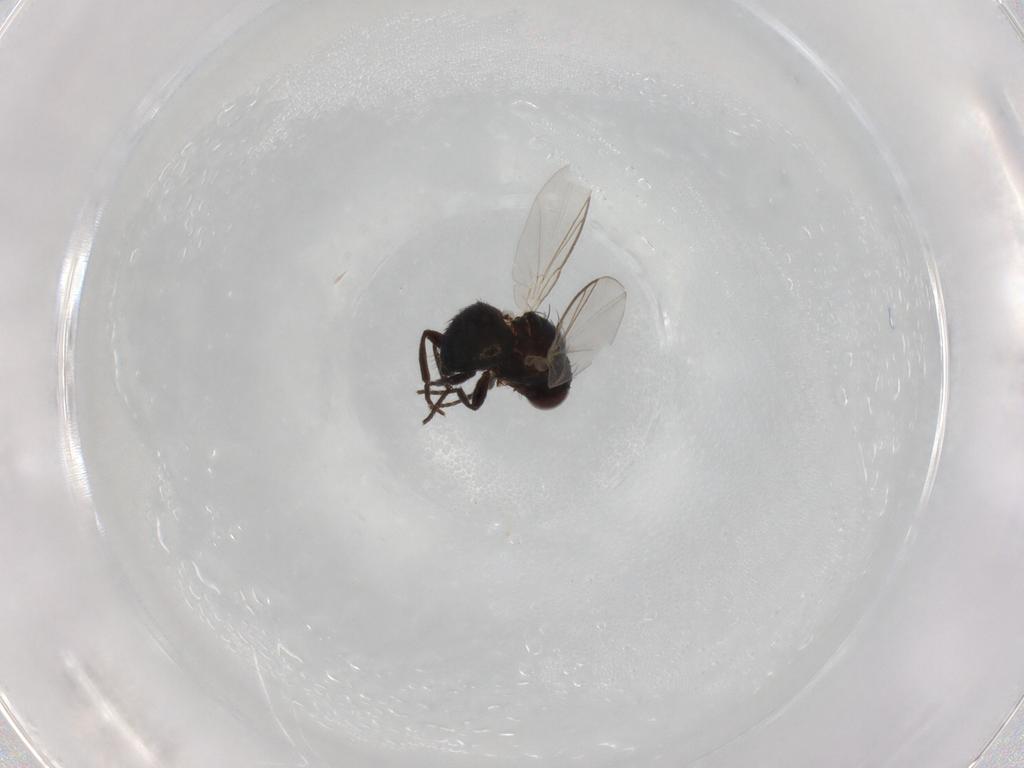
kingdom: Animalia
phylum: Arthropoda
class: Insecta
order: Diptera
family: Agromyzidae
